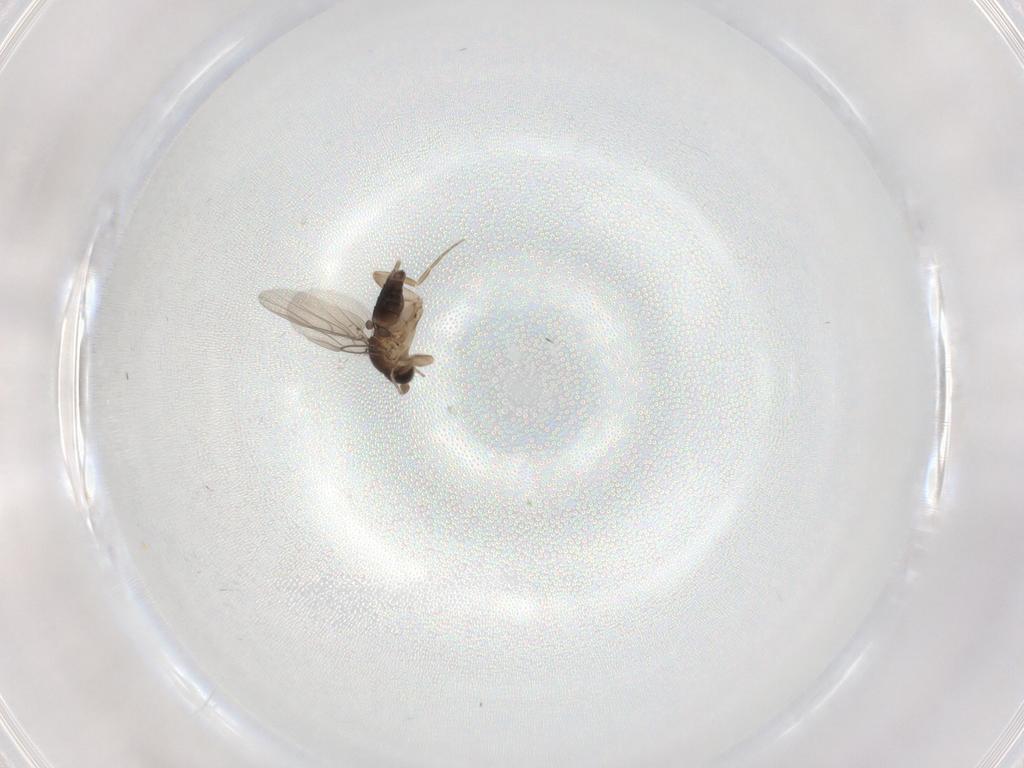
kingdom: Animalia
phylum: Arthropoda
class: Insecta
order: Diptera
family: Phoridae
